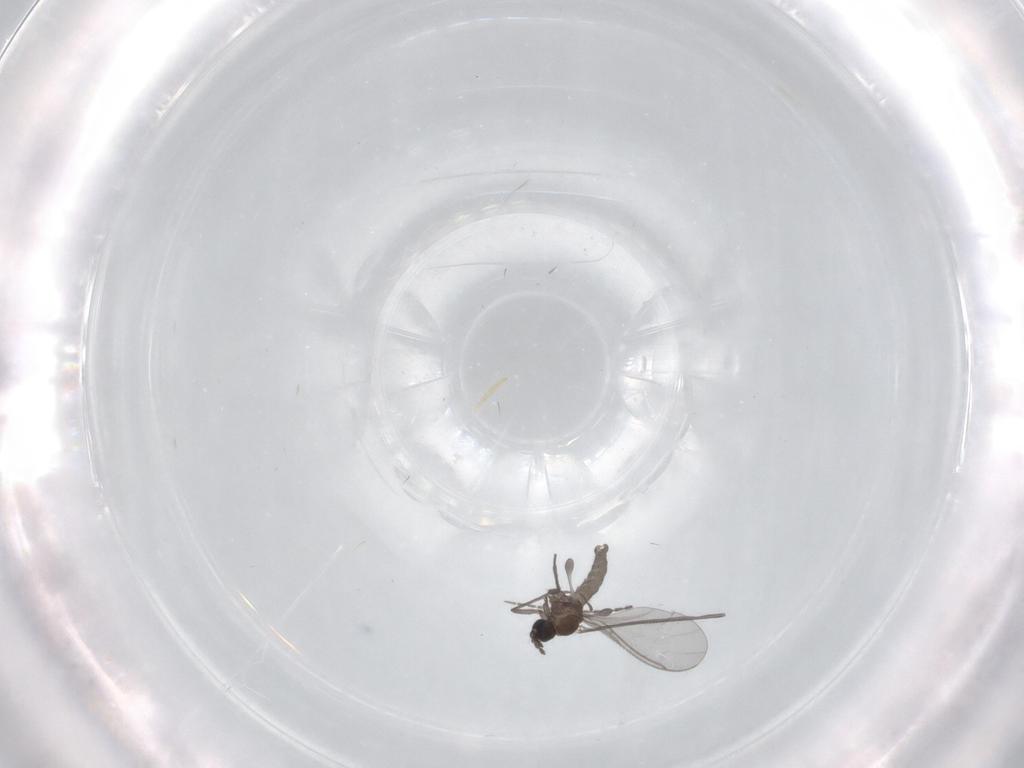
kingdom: Animalia
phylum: Arthropoda
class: Insecta
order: Diptera
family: Sciaridae
